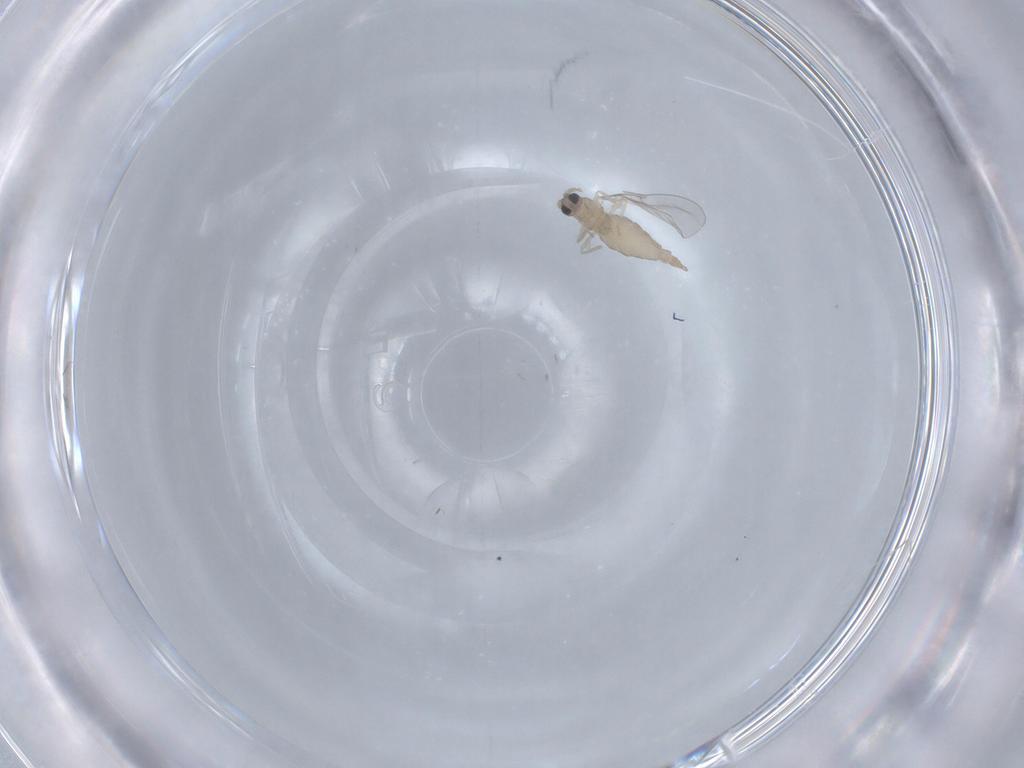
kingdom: Animalia
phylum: Arthropoda
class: Insecta
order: Diptera
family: Cecidomyiidae
